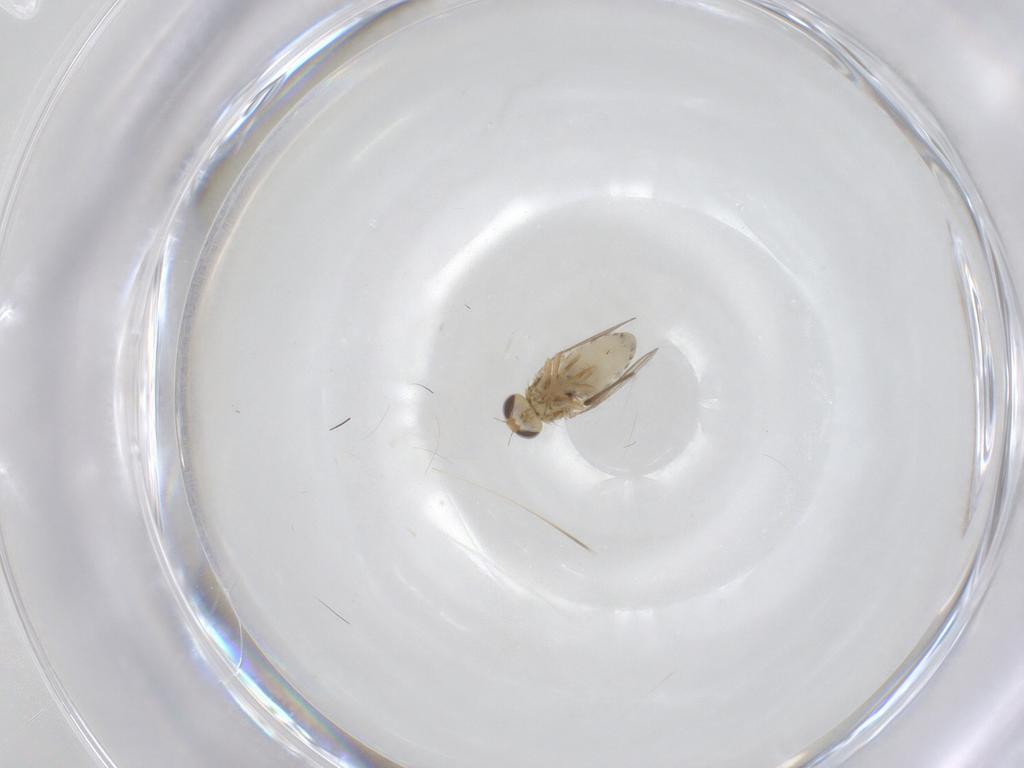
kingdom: Animalia
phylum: Arthropoda
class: Insecta
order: Diptera
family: Chyromyidae
